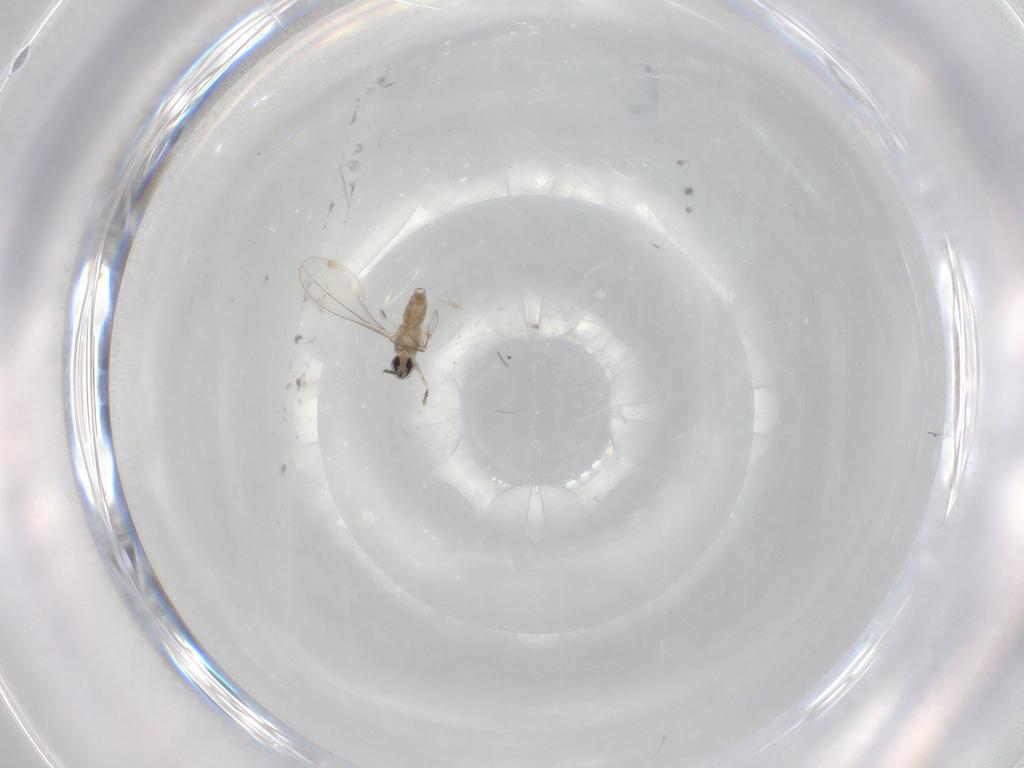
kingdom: Animalia
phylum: Arthropoda
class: Insecta
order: Diptera
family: Cecidomyiidae
